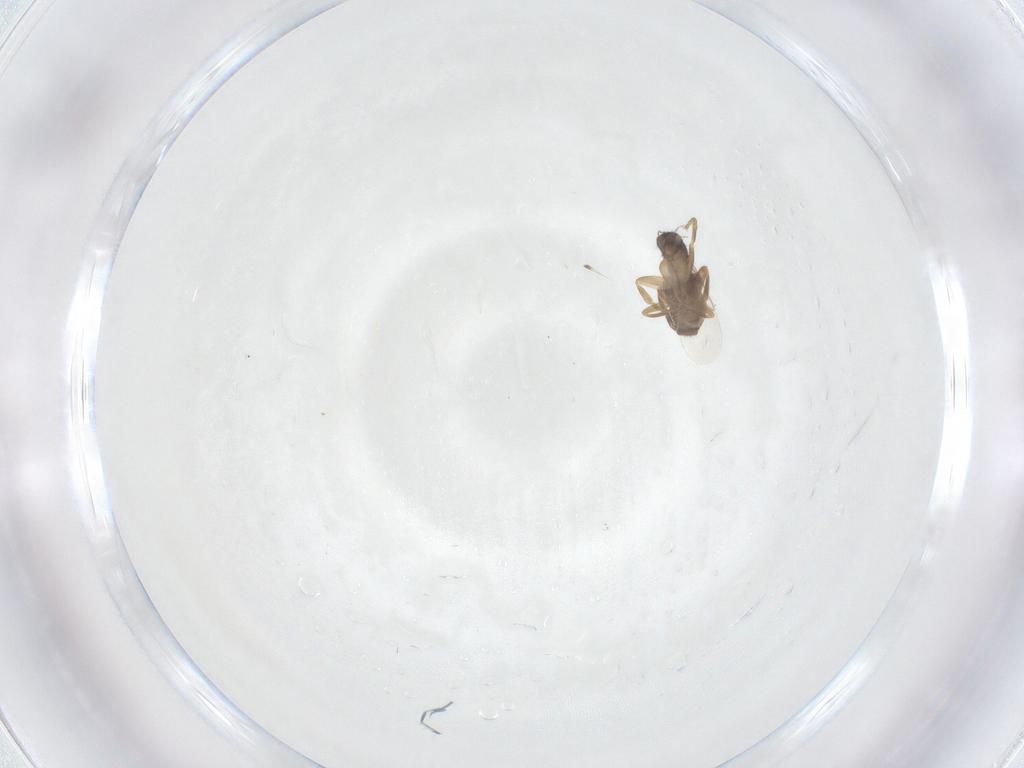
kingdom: Animalia
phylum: Arthropoda
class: Insecta
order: Diptera
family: Phoridae
